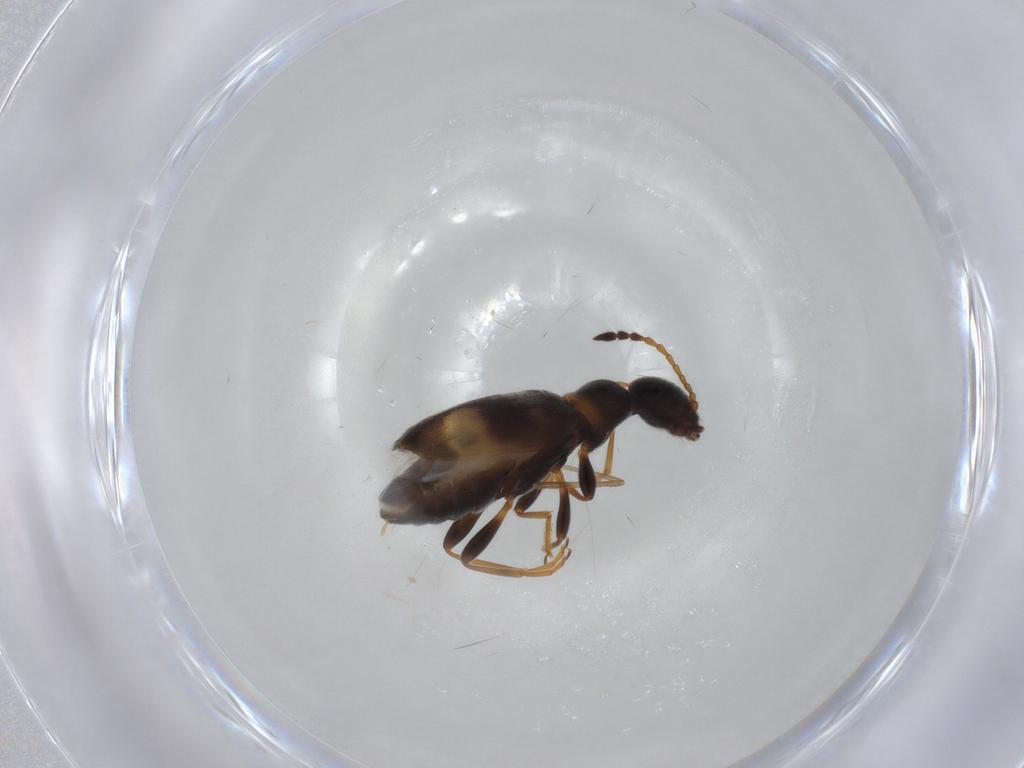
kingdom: Animalia
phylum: Arthropoda
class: Insecta
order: Coleoptera
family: Anthicidae
